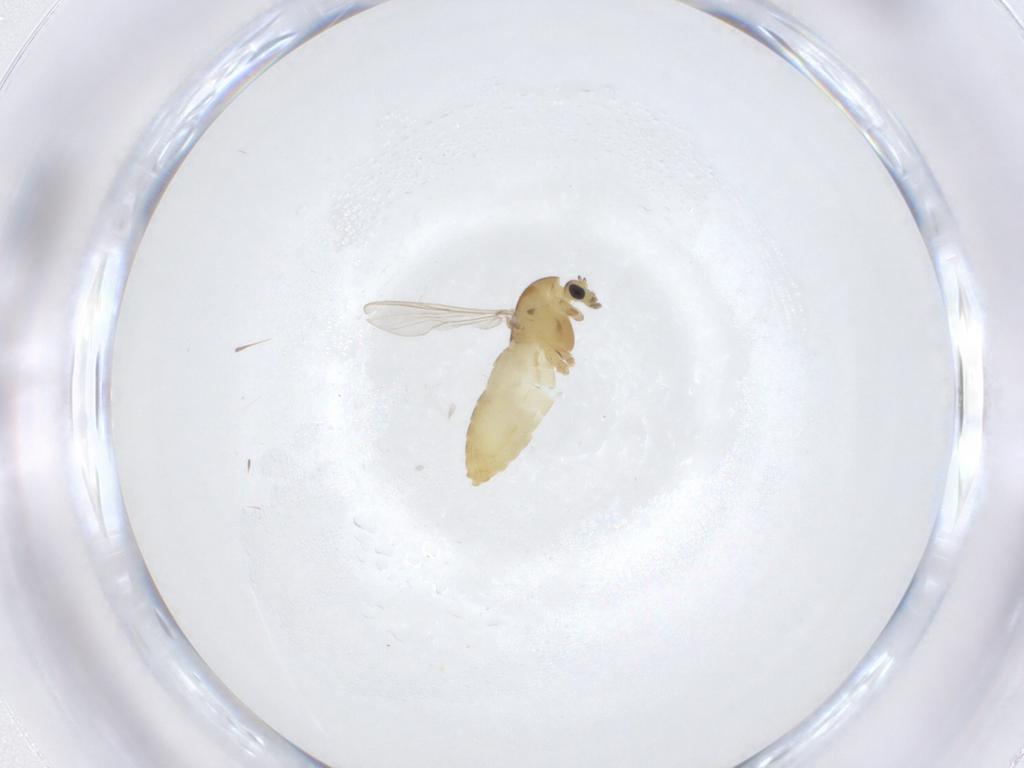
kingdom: Animalia
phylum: Arthropoda
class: Insecta
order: Diptera
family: Chironomidae
